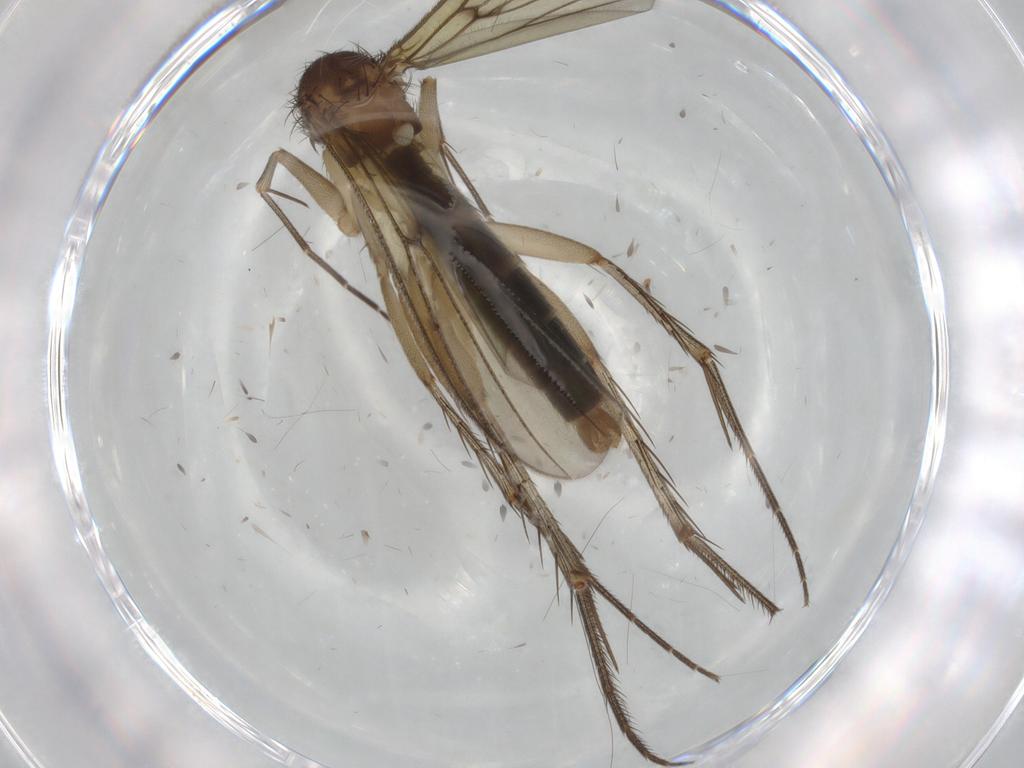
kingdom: Animalia
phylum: Arthropoda
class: Insecta
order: Diptera
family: Mycetophilidae
